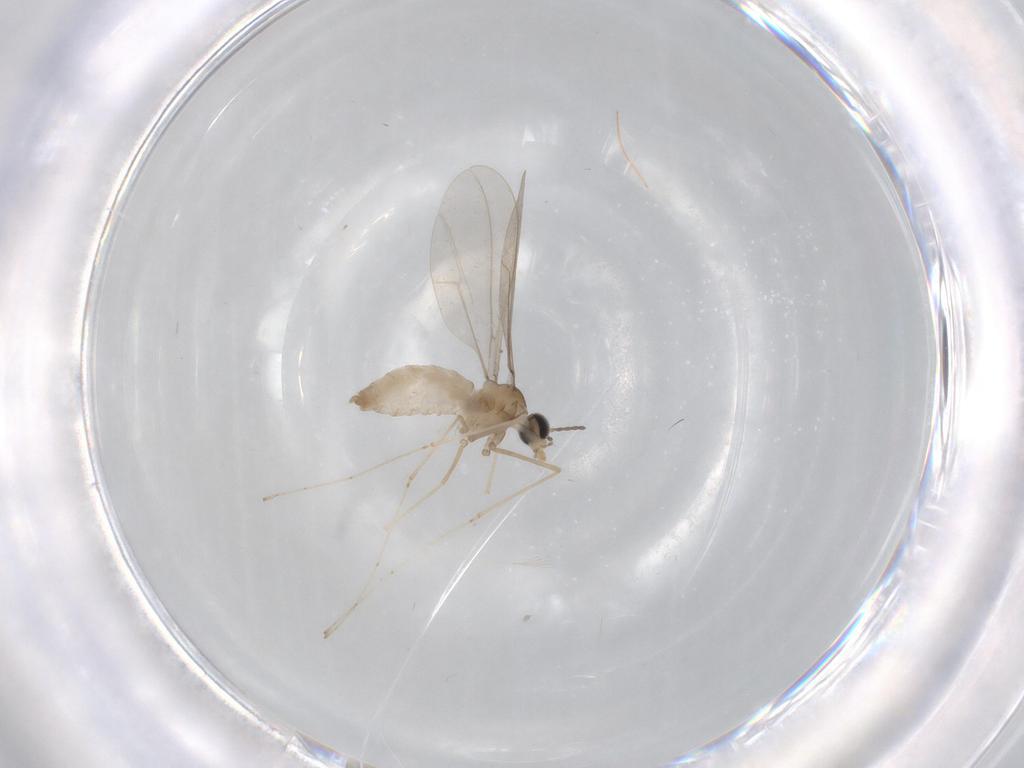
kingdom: Animalia
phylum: Arthropoda
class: Insecta
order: Diptera
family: Cecidomyiidae
